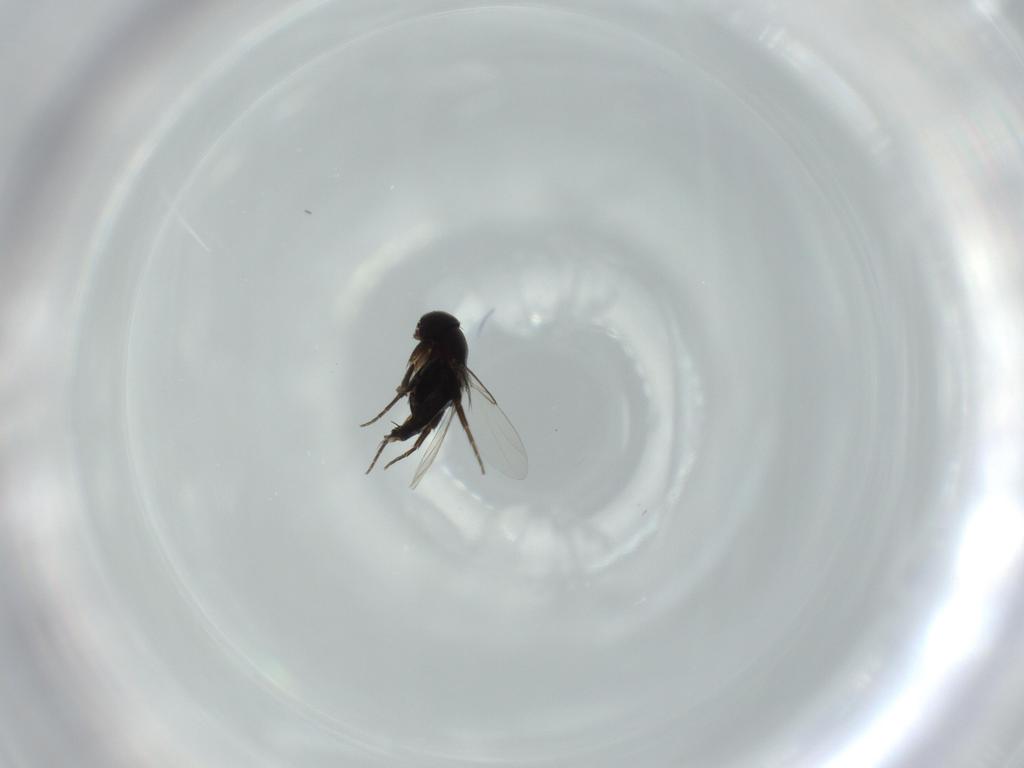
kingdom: Animalia
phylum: Arthropoda
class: Insecta
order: Diptera
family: Phoridae
